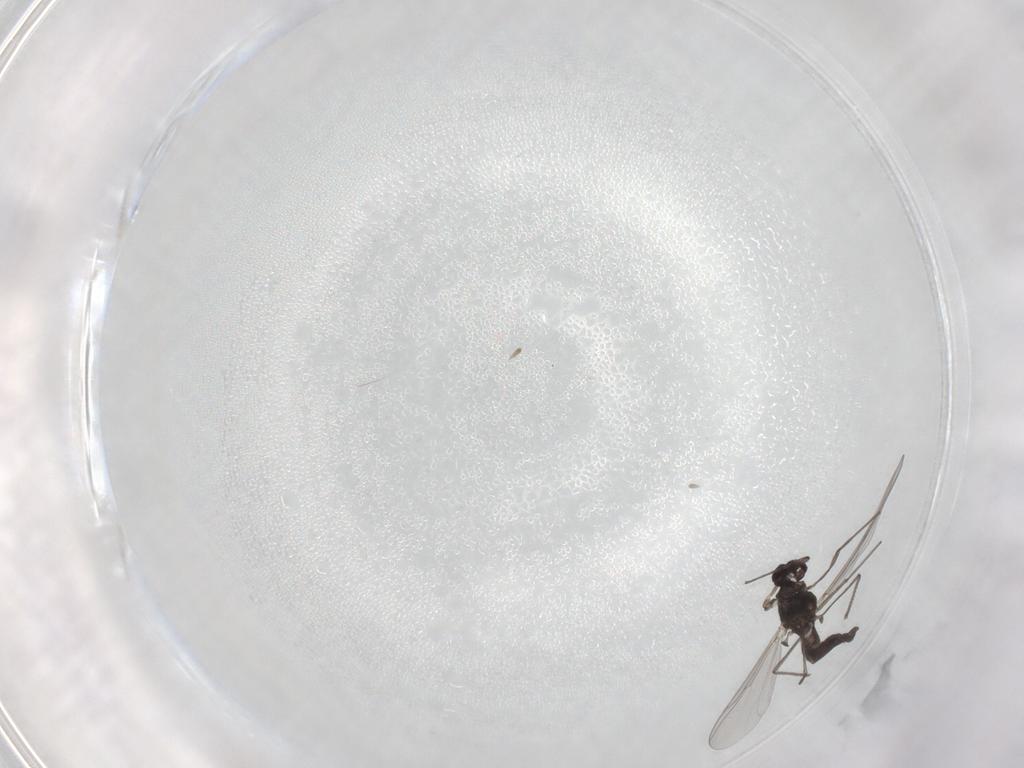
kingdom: Animalia
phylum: Arthropoda
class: Insecta
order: Diptera
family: Chironomidae
